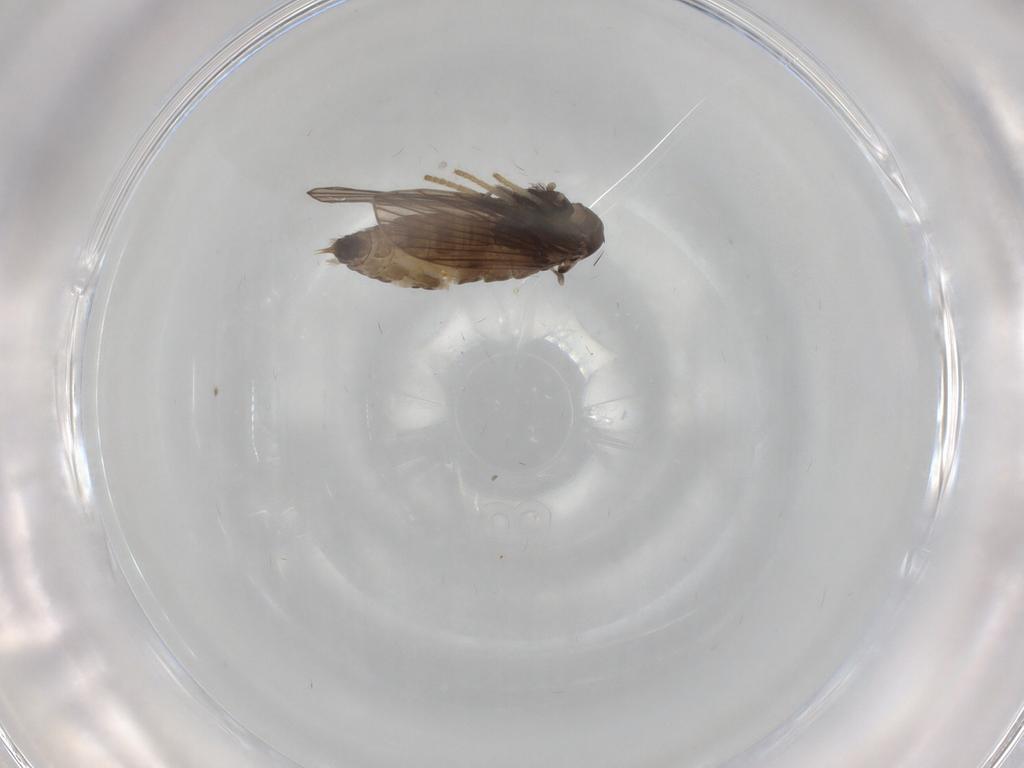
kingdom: Animalia
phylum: Arthropoda
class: Insecta
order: Diptera
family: Psychodidae
